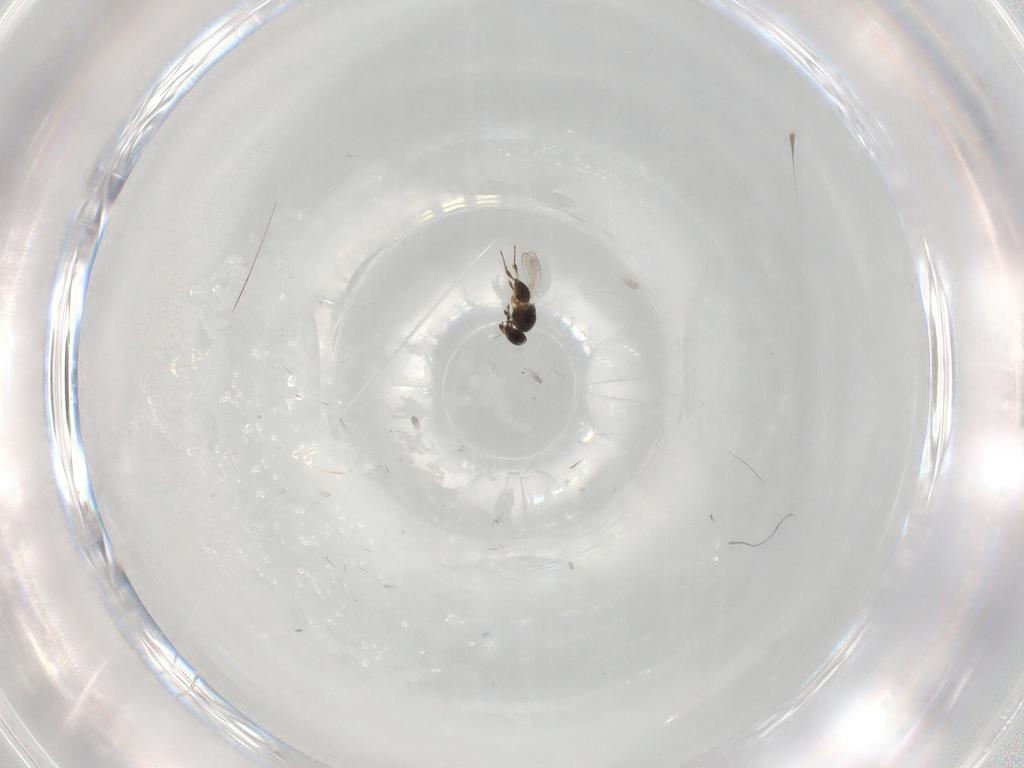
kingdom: Animalia
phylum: Arthropoda
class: Insecta
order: Hymenoptera
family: Platygastridae
